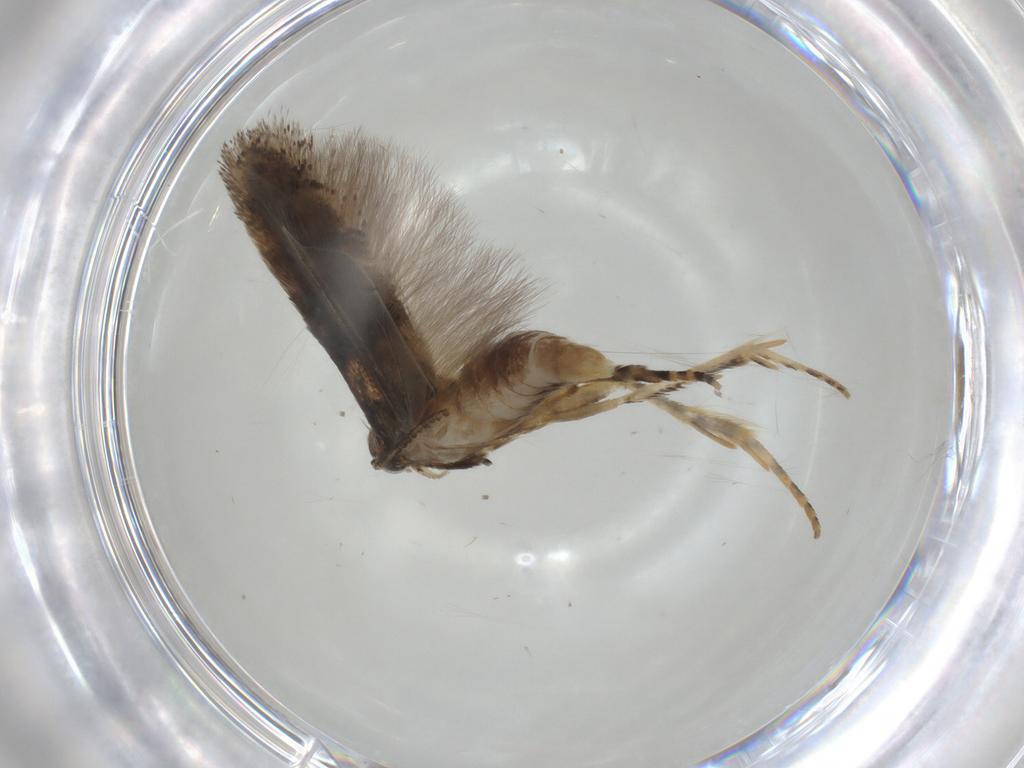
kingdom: Animalia
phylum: Arthropoda
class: Insecta
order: Lepidoptera
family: Gelechiidae
